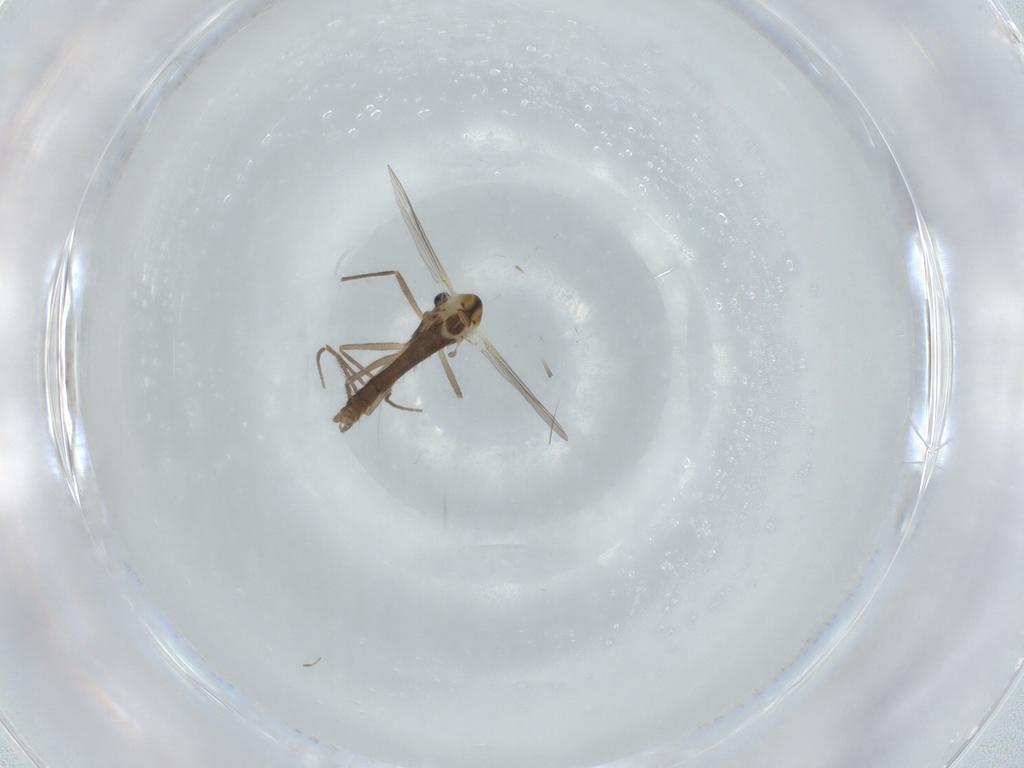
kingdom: Animalia
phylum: Arthropoda
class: Insecta
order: Diptera
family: Chironomidae
